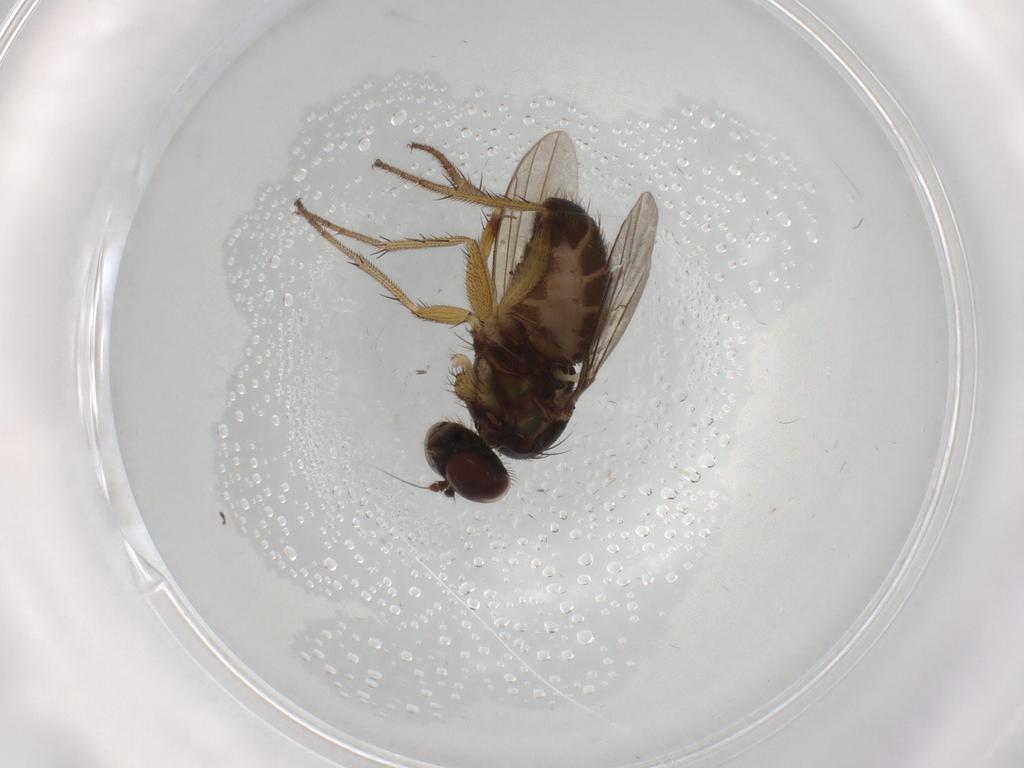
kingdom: Animalia
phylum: Arthropoda
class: Insecta
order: Diptera
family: Dolichopodidae
